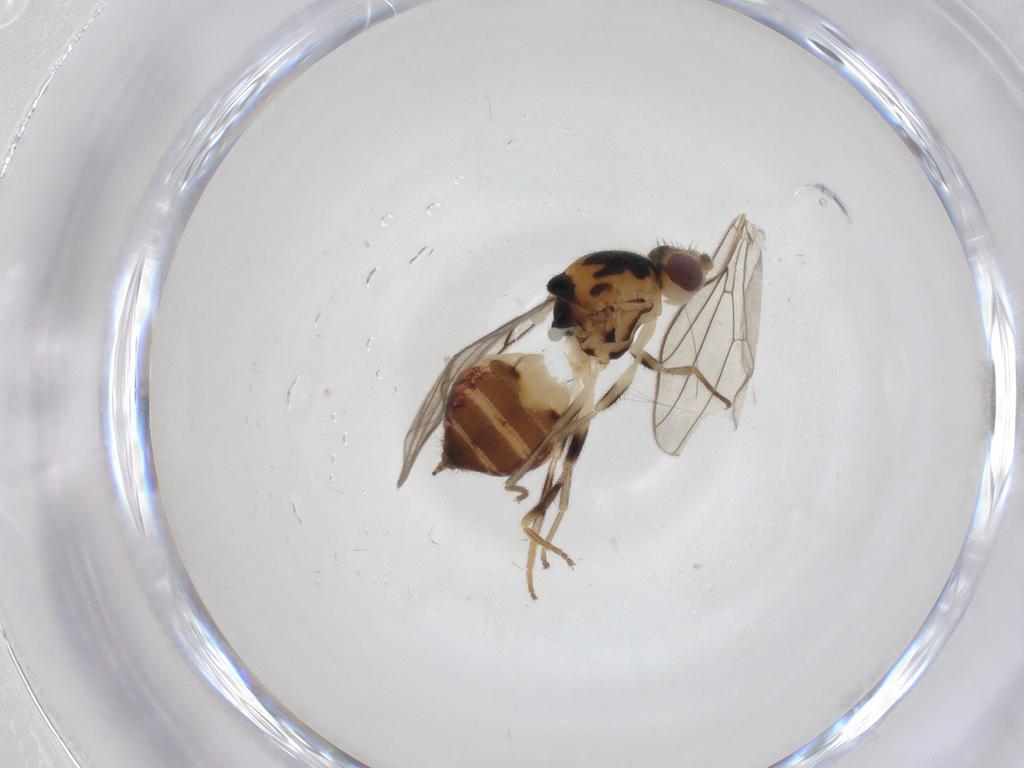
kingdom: Animalia
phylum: Arthropoda
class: Insecta
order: Diptera
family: Chloropidae
